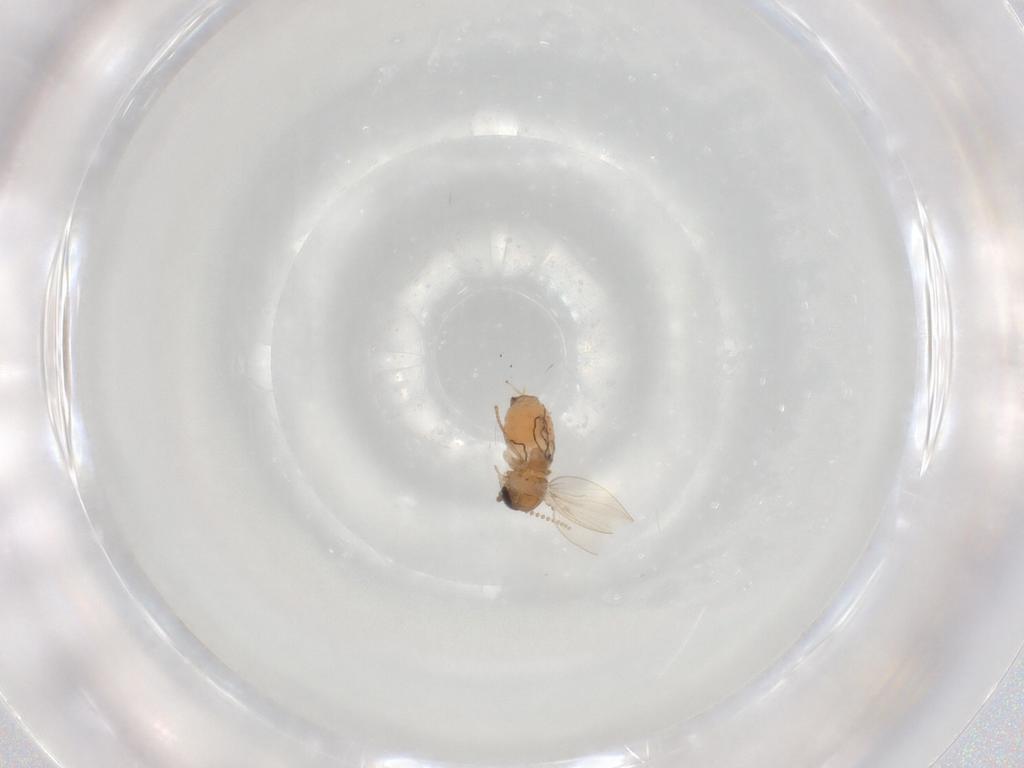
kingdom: Animalia
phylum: Arthropoda
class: Insecta
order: Diptera
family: Psychodidae
